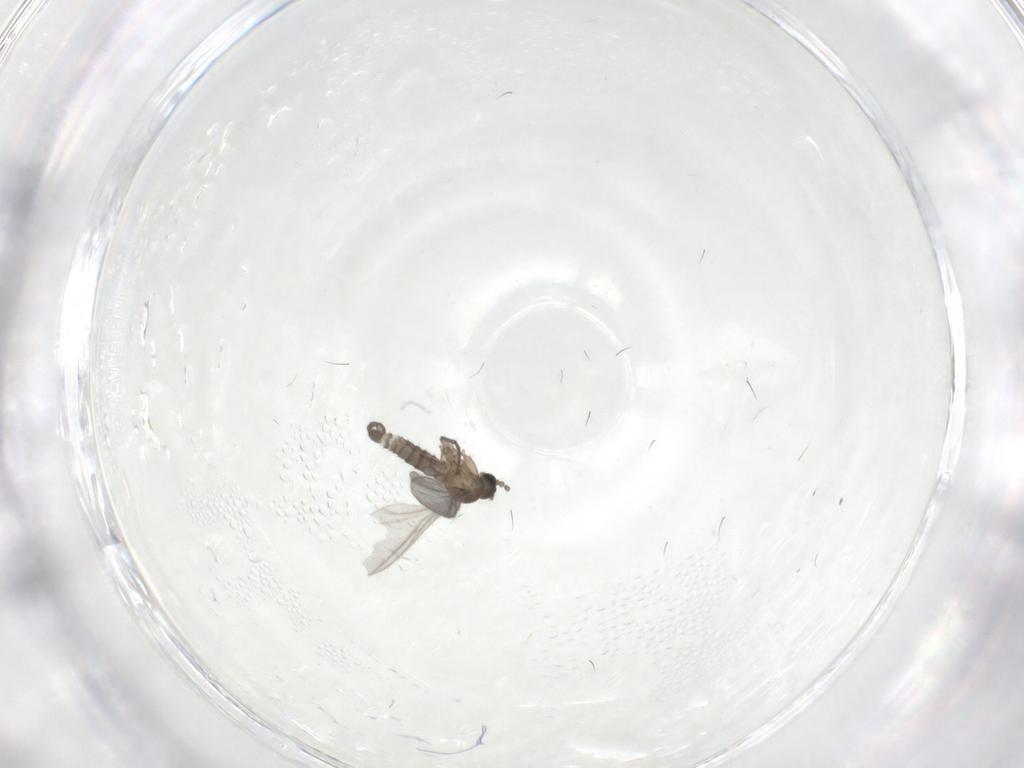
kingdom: Animalia
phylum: Arthropoda
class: Insecta
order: Diptera
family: Sciaridae
